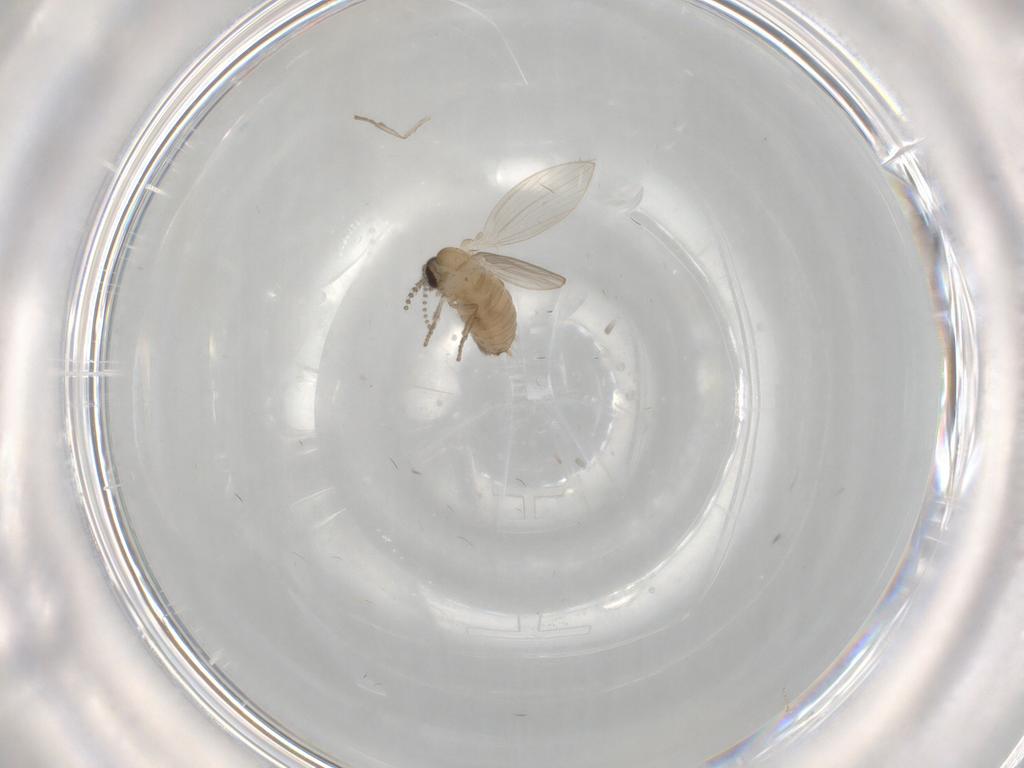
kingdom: Animalia
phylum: Arthropoda
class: Insecta
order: Diptera
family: Psychodidae
